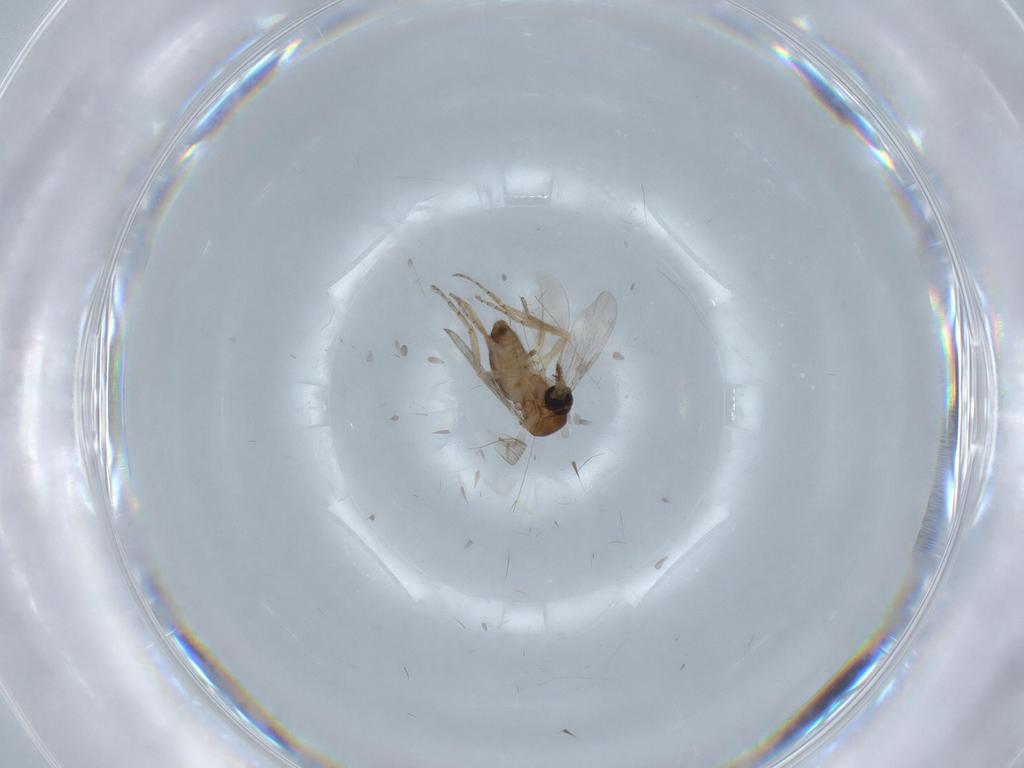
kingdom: Animalia
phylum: Arthropoda
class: Insecta
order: Diptera
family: Ceratopogonidae
